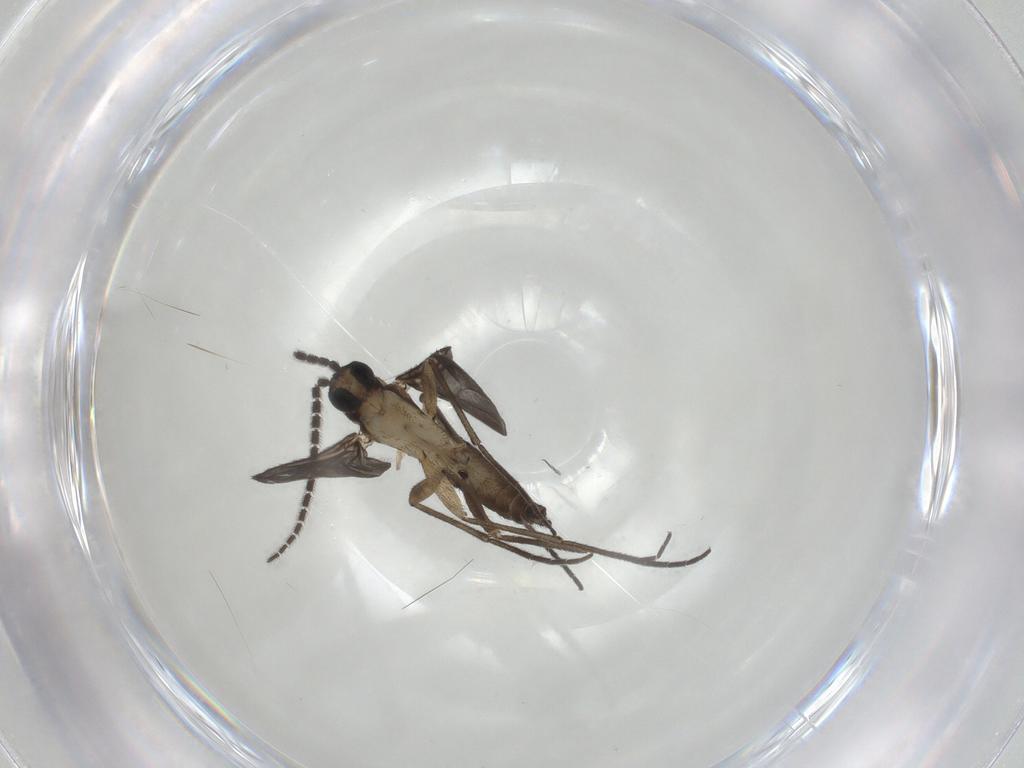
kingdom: Animalia
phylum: Arthropoda
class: Insecta
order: Diptera
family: Sciaridae
